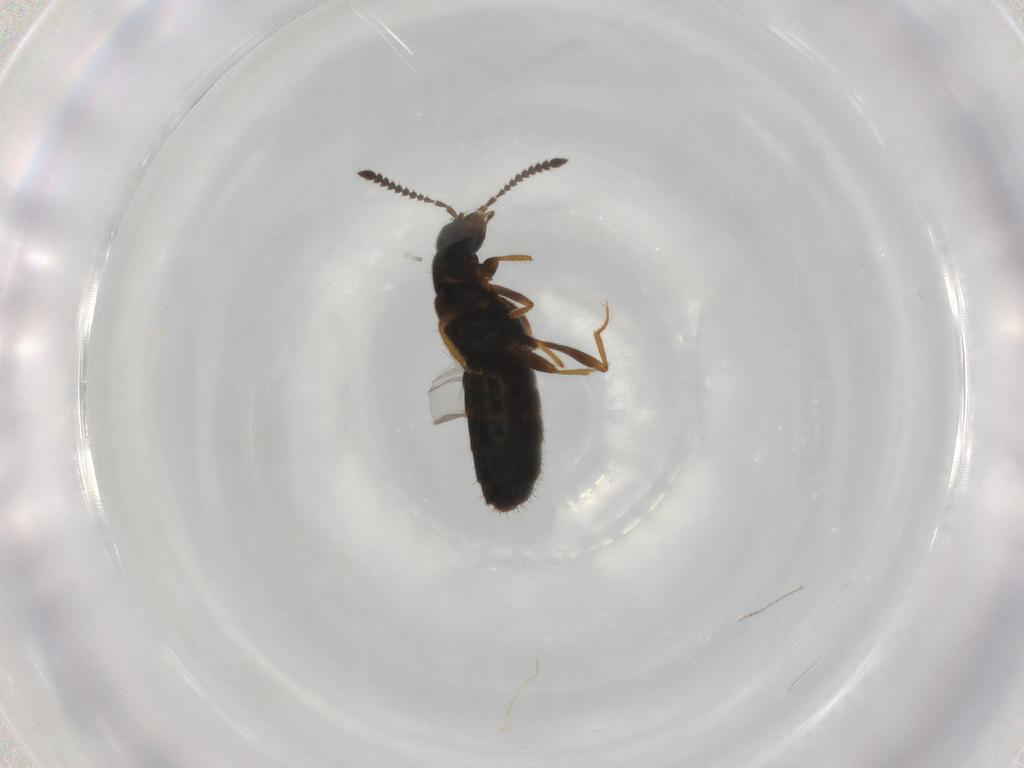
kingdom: Animalia
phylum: Arthropoda
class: Insecta
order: Coleoptera
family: Staphylinidae
